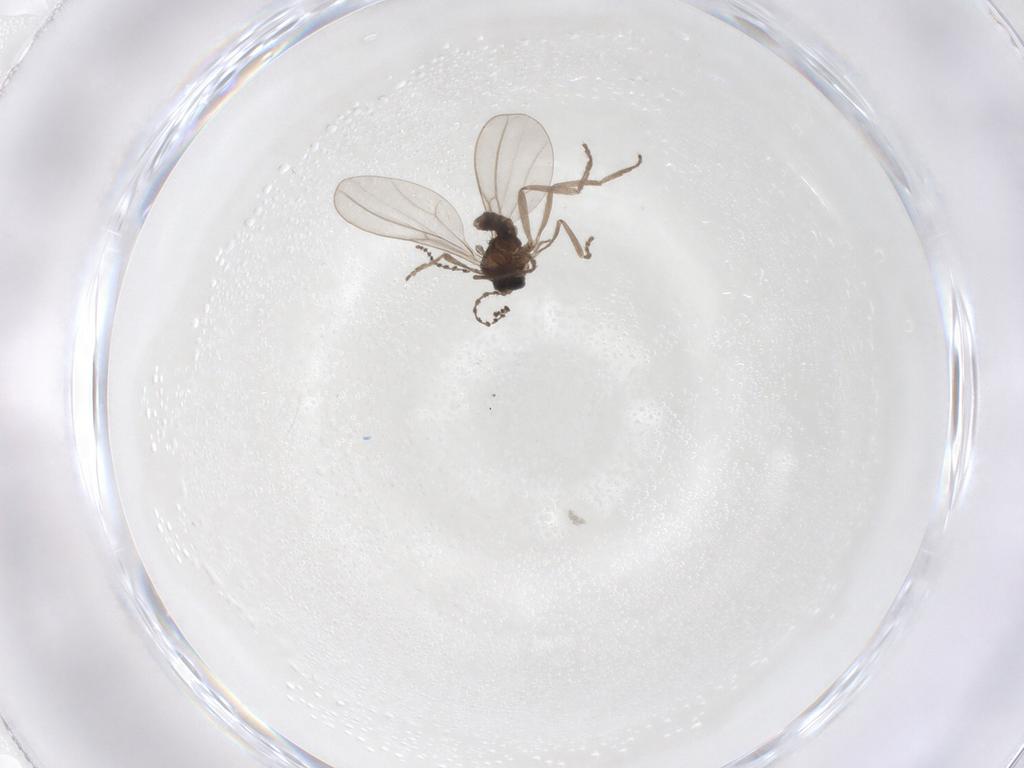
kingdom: Animalia
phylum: Arthropoda
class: Insecta
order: Diptera
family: Cecidomyiidae
